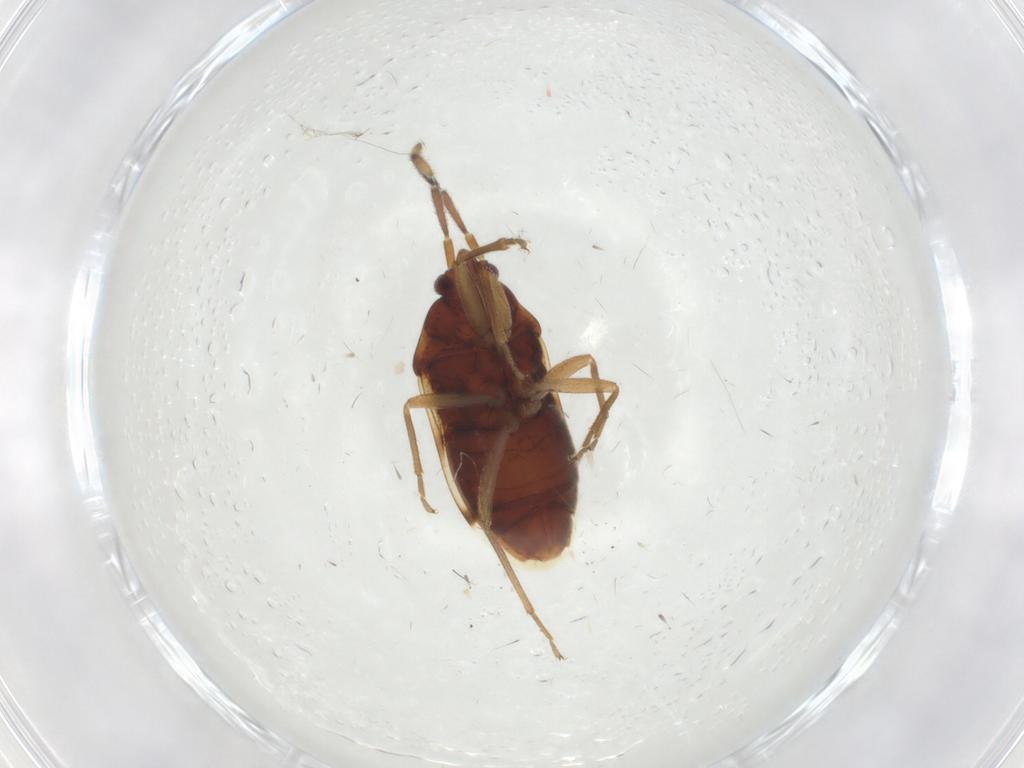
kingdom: Animalia
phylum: Arthropoda
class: Insecta
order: Hemiptera
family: Rhyparochromidae
